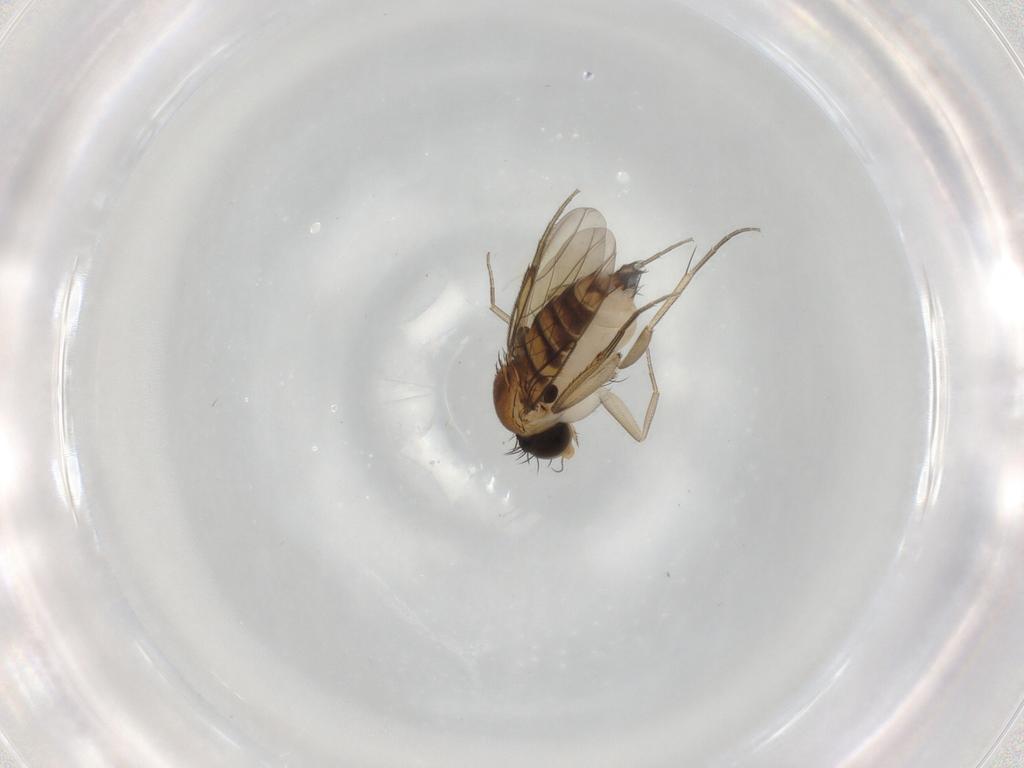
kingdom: Animalia
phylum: Arthropoda
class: Insecta
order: Diptera
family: Phoridae
